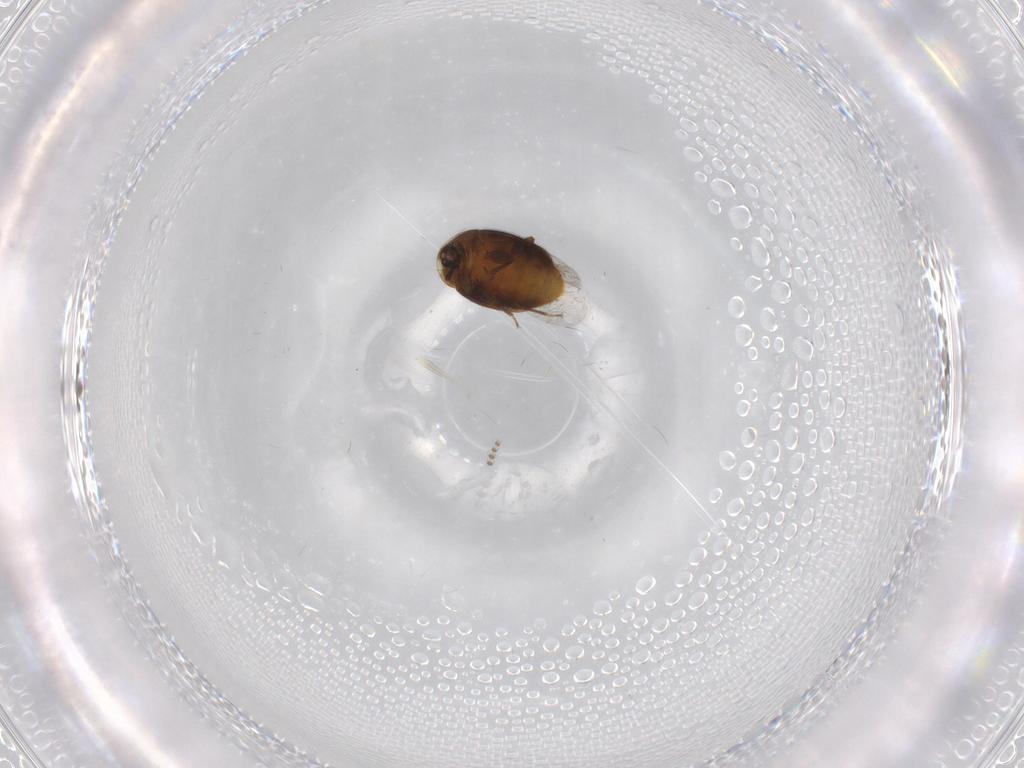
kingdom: Animalia
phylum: Arthropoda
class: Insecta
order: Coleoptera
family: Corylophidae
